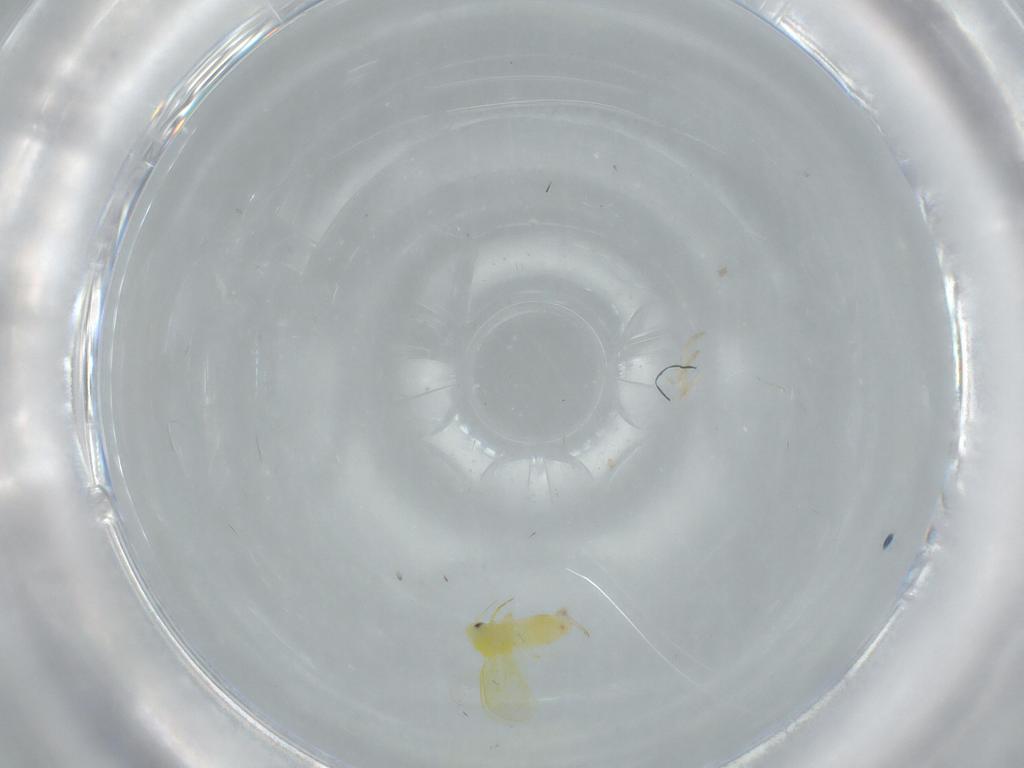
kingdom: Animalia
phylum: Arthropoda
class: Insecta
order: Hemiptera
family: Aleyrodidae
